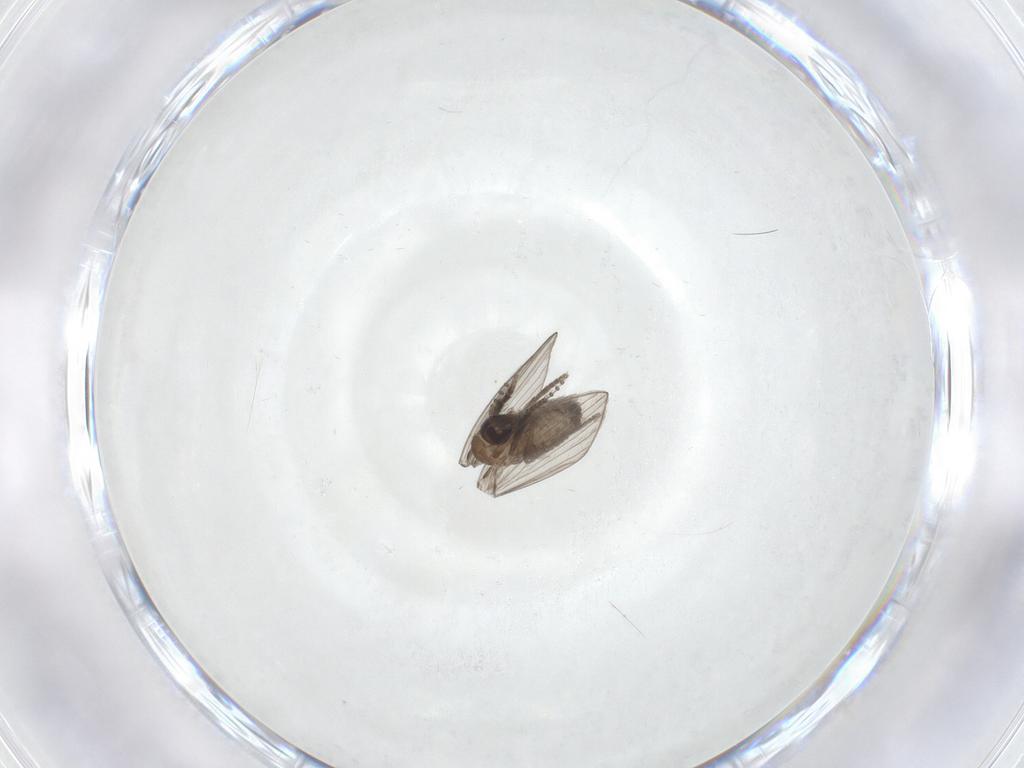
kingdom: Animalia
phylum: Arthropoda
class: Insecta
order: Diptera
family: Psychodidae
